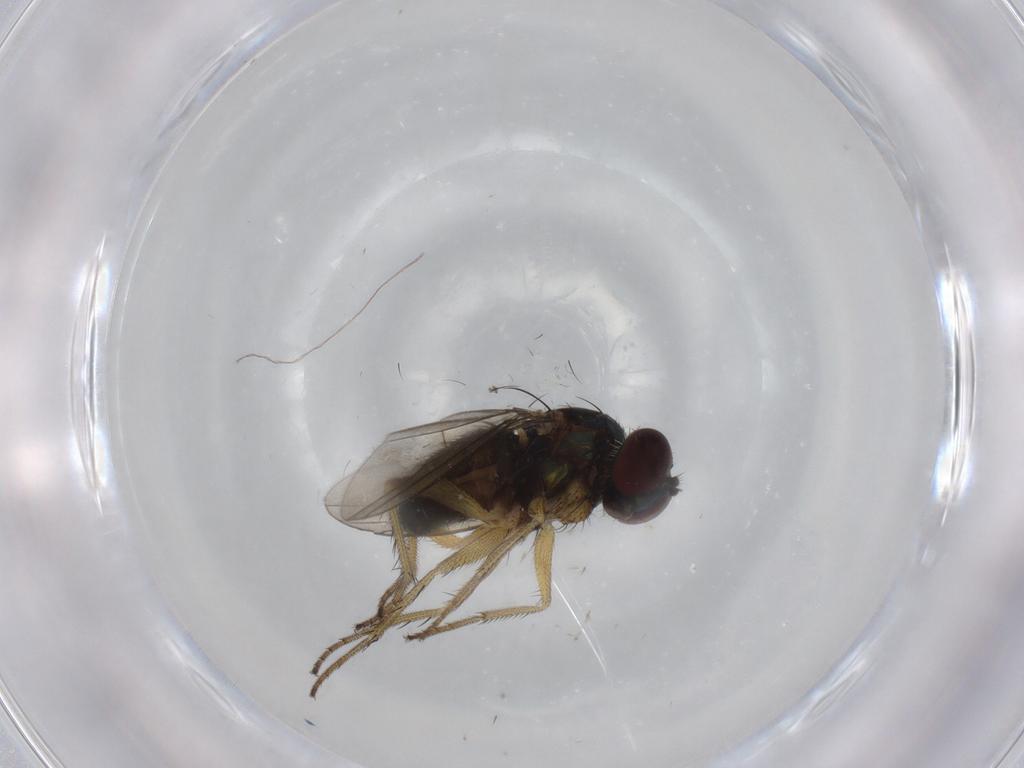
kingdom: Animalia
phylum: Arthropoda
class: Insecta
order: Diptera
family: Dolichopodidae
